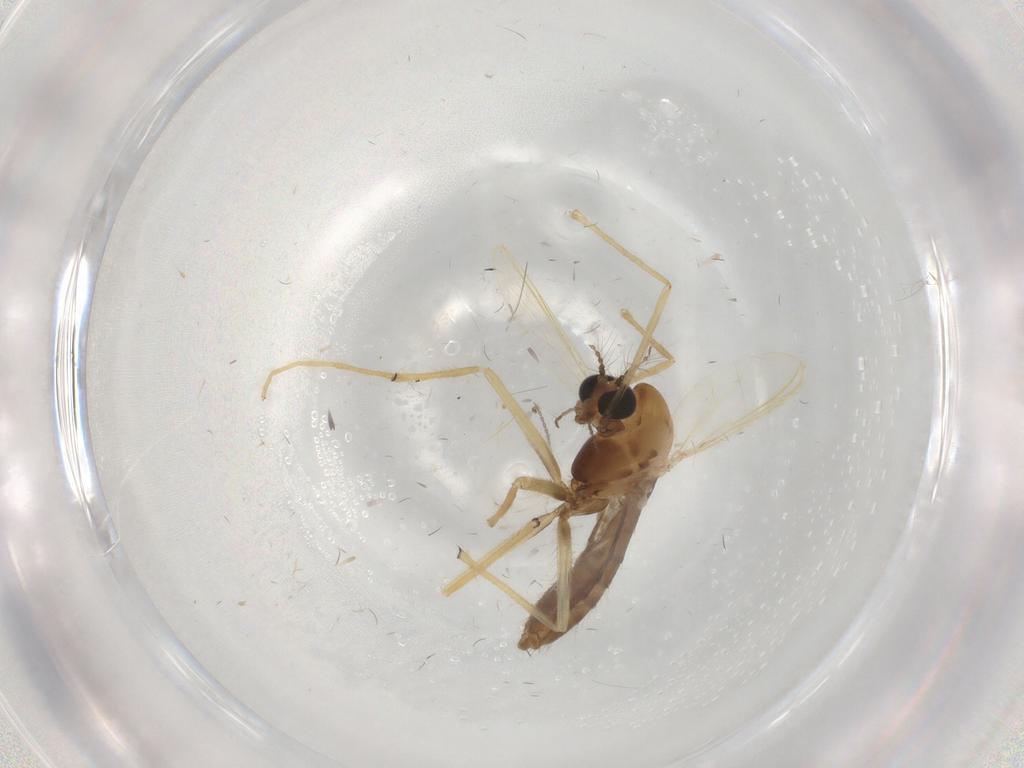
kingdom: Animalia
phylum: Arthropoda
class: Insecta
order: Diptera
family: Chironomidae
